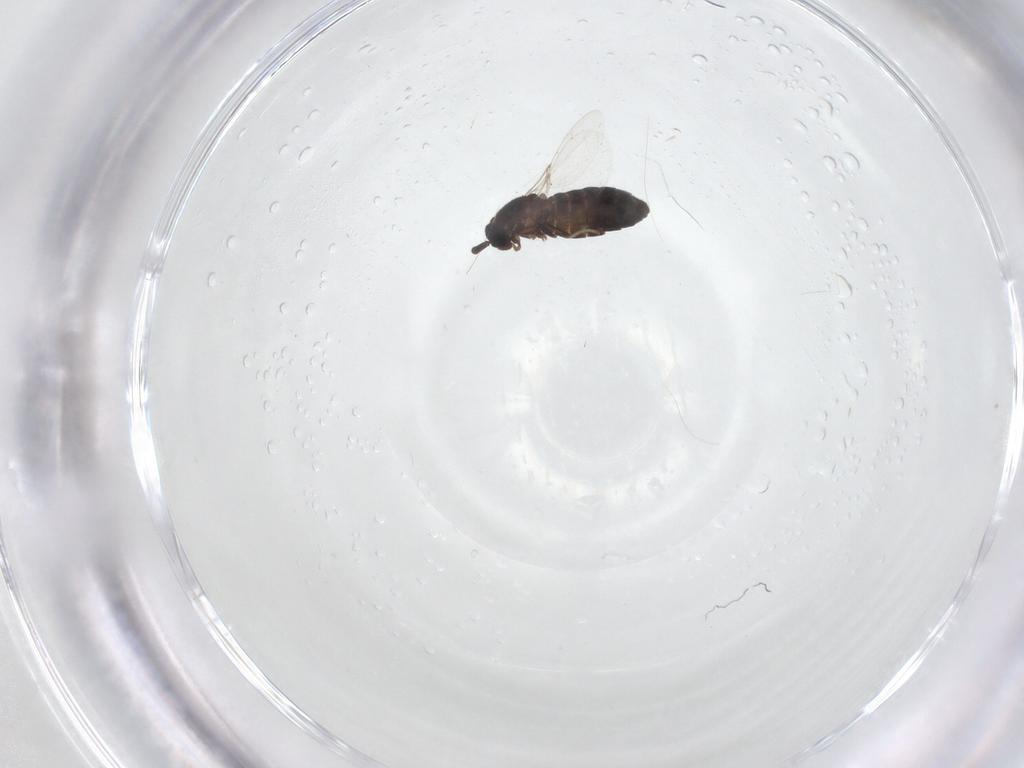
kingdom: Animalia
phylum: Arthropoda
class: Insecta
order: Diptera
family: Scatopsidae
